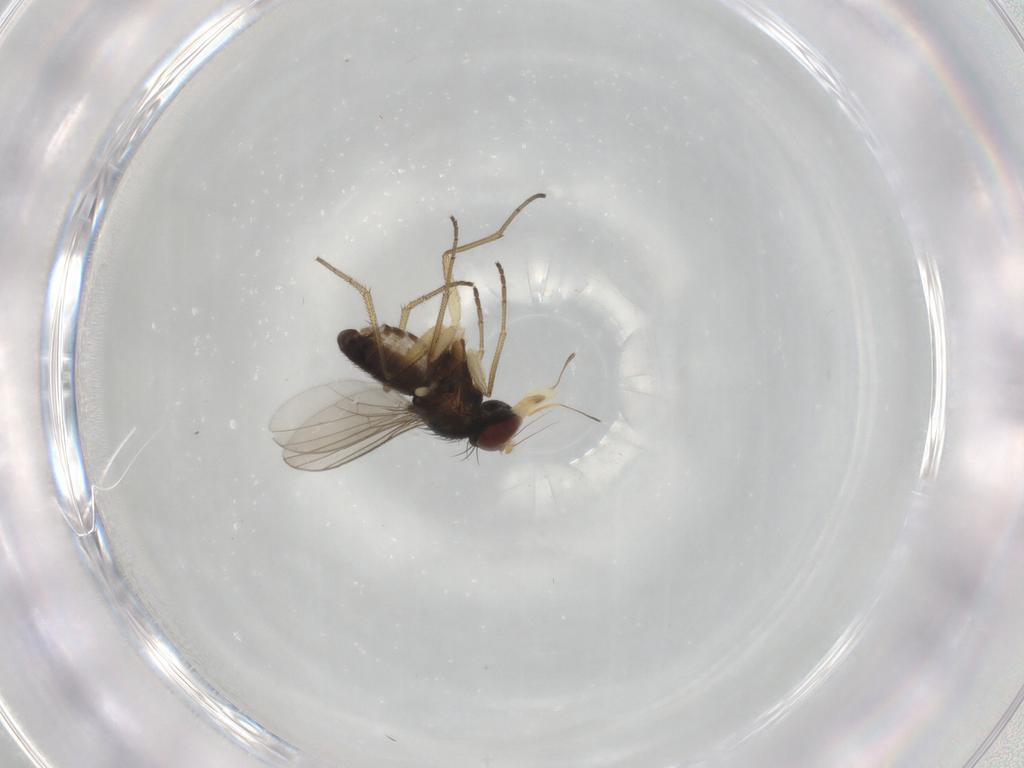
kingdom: Animalia
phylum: Arthropoda
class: Insecta
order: Diptera
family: Dolichopodidae
